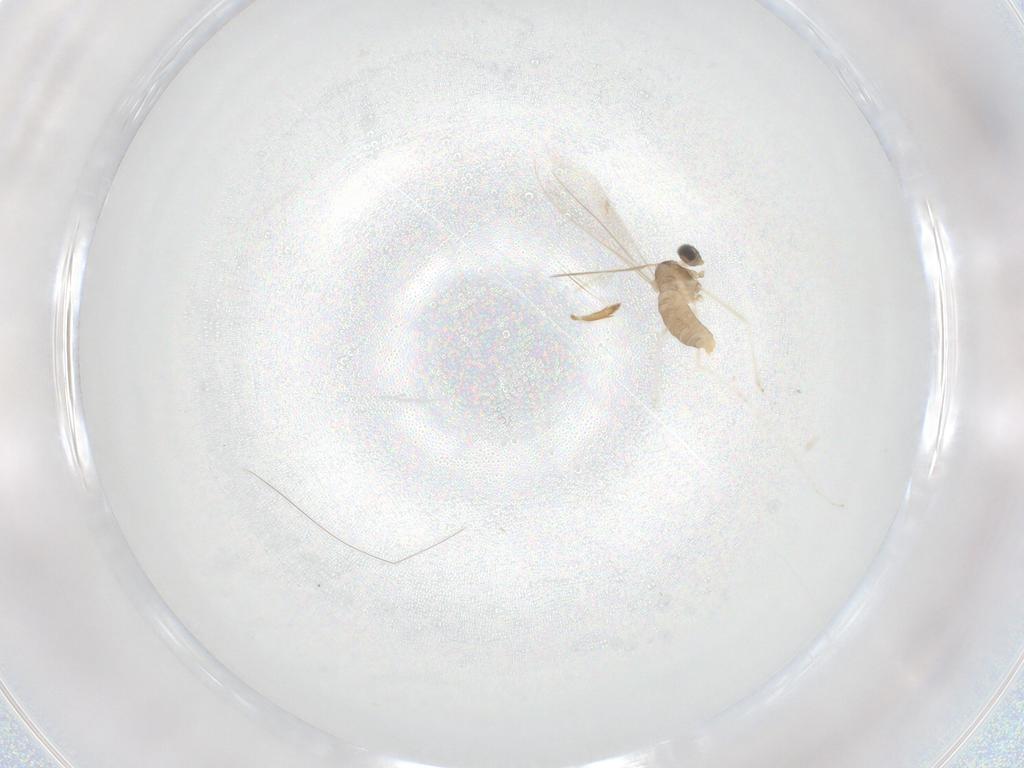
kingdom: Animalia
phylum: Arthropoda
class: Insecta
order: Diptera
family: Cecidomyiidae
